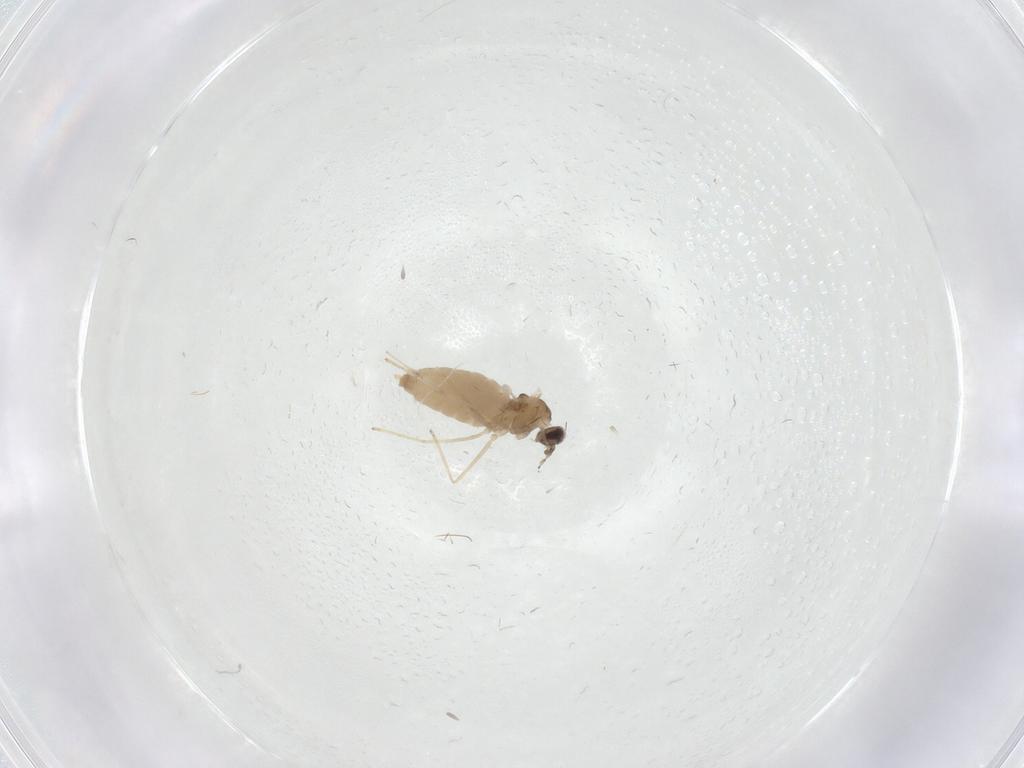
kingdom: Animalia
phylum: Arthropoda
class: Insecta
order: Diptera
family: Cecidomyiidae
